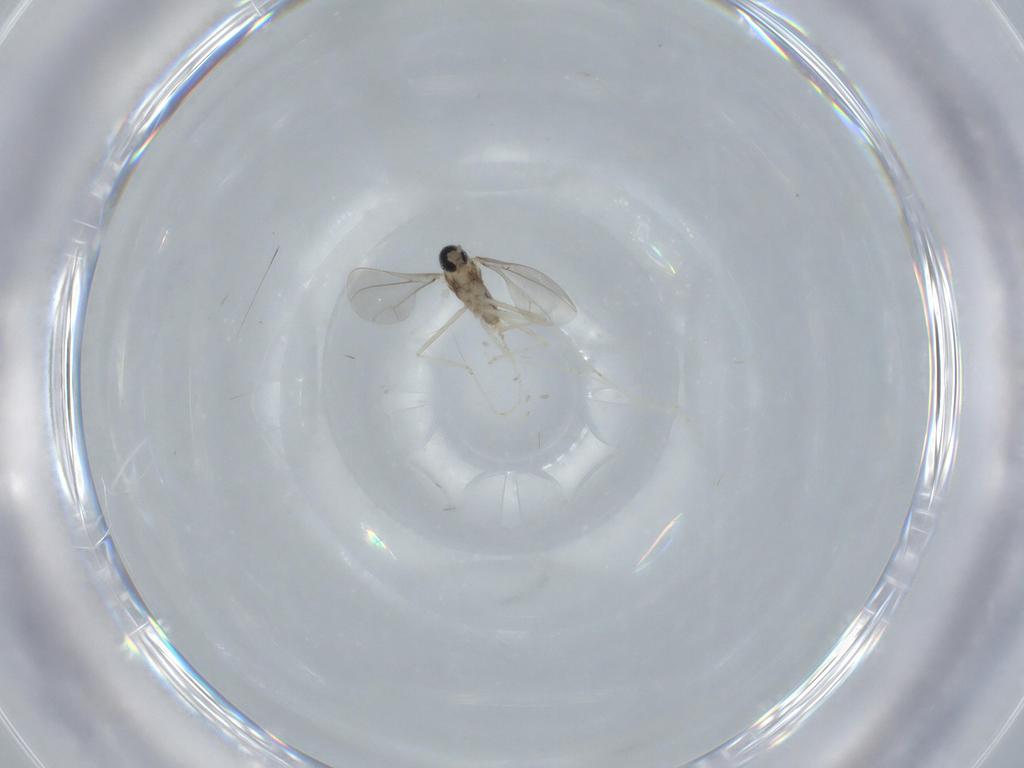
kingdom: Animalia
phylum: Arthropoda
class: Insecta
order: Diptera
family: Cecidomyiidae
